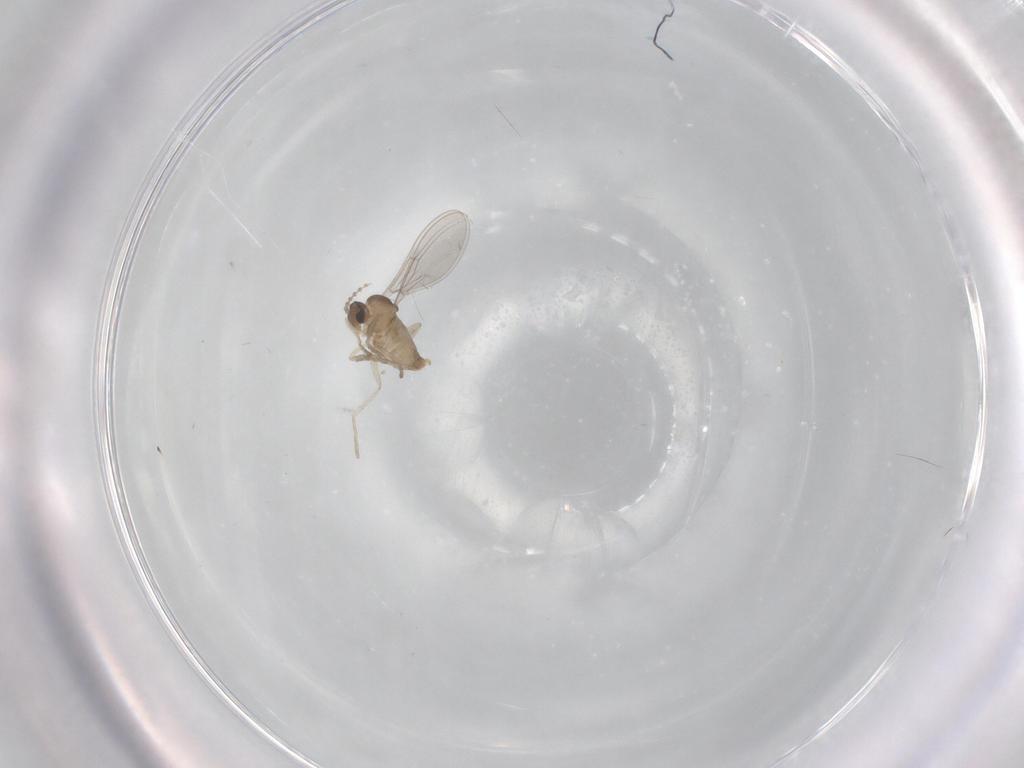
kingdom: Animalia
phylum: Arthropoda
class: Insecta
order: Diptera
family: Cecidomyiidae
